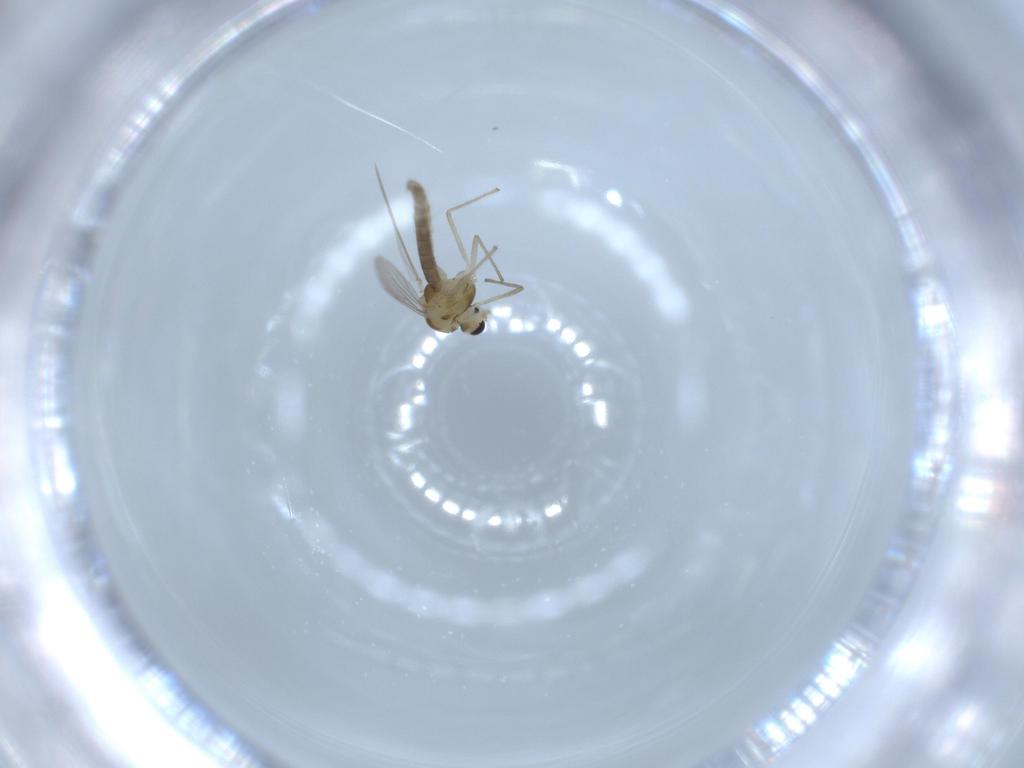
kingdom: Animalia
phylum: Arthropoda
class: Insecta
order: Diptera
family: Chironomidae
